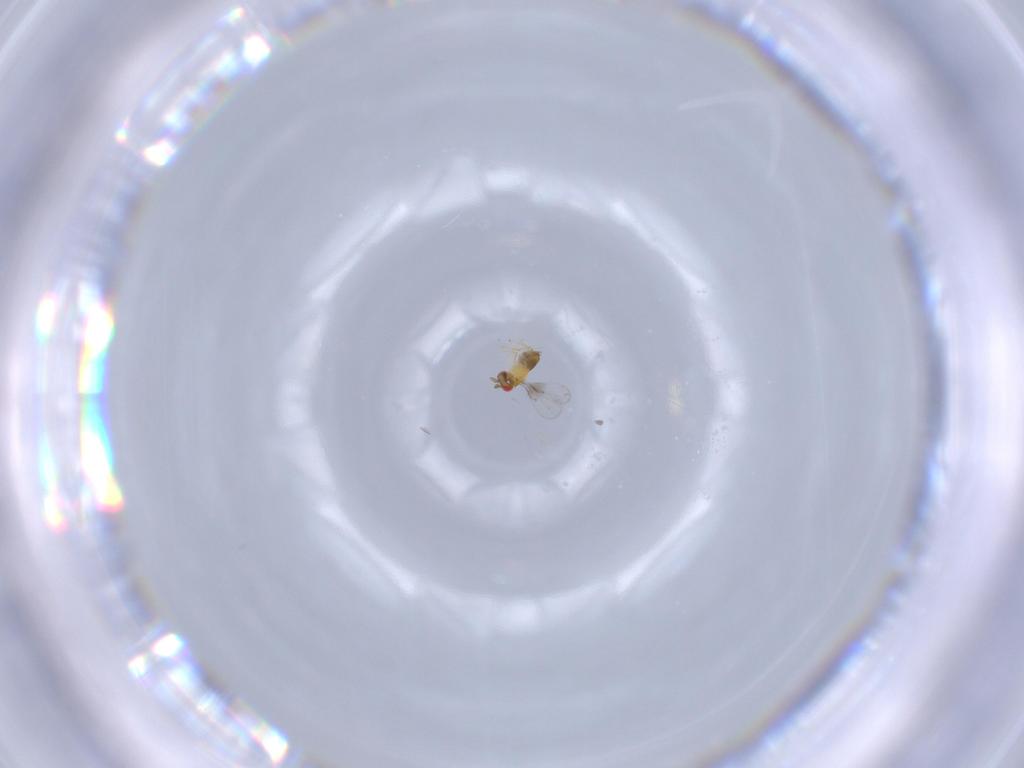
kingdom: Animalia
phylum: Arthropoda
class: Insecta
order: Hymenoptera
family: Trichogrammatidae
